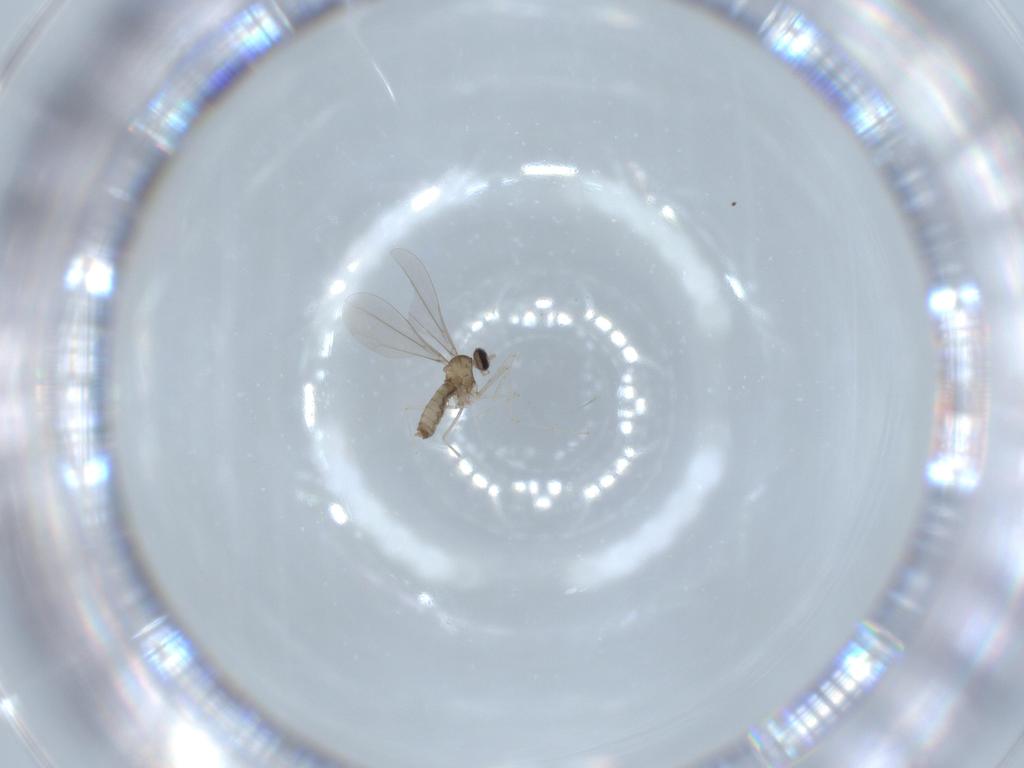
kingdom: Animalia
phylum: Arthropoda
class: Insecta
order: Diptera
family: Cecidomyiidae
